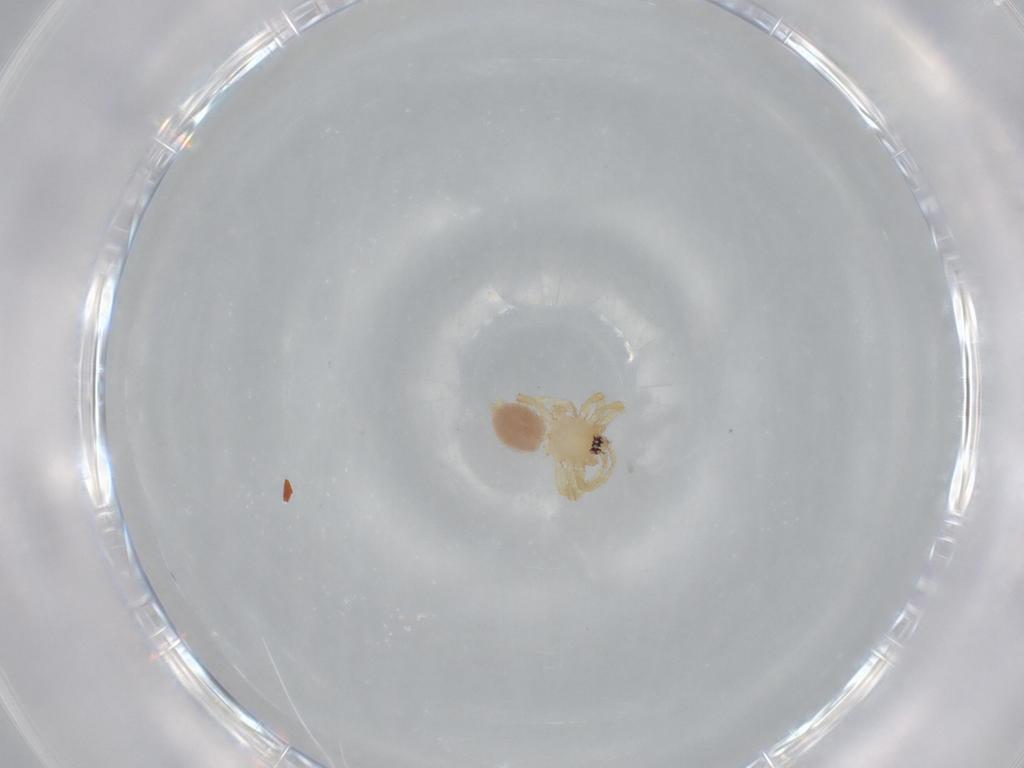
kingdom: Animalia
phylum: Arthropoda
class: Arachnida
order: Araneae
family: Oonopidae
